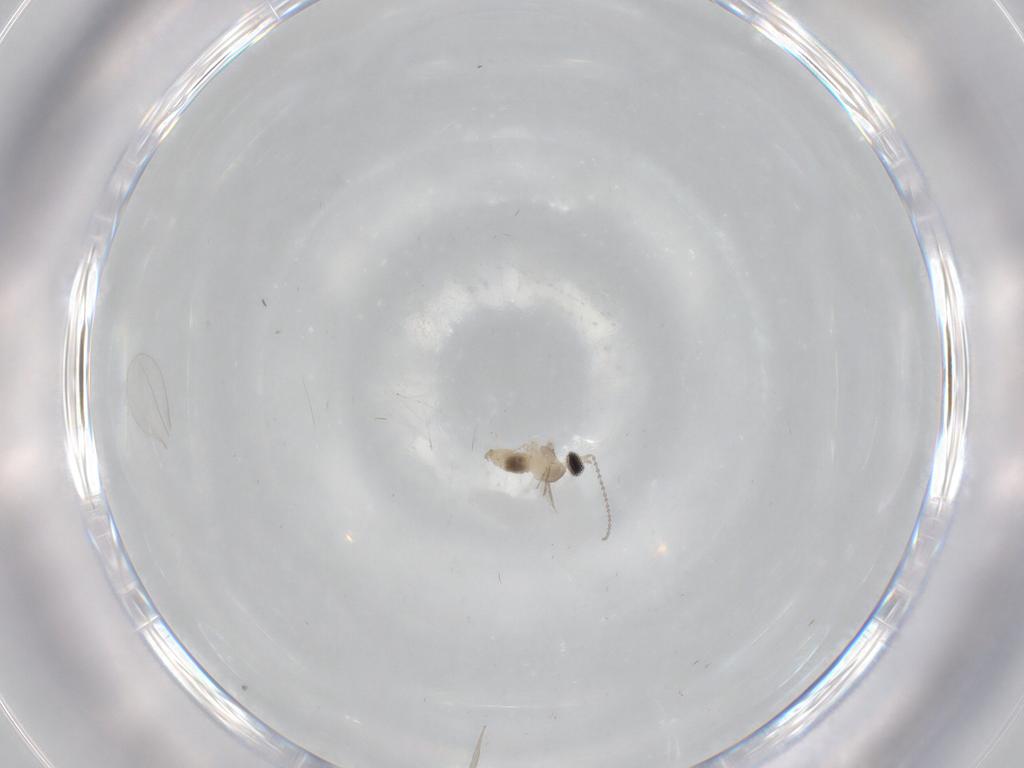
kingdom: Animalia
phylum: Arthropoda
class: Insecta
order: Diptera
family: Cecidomyiidae
